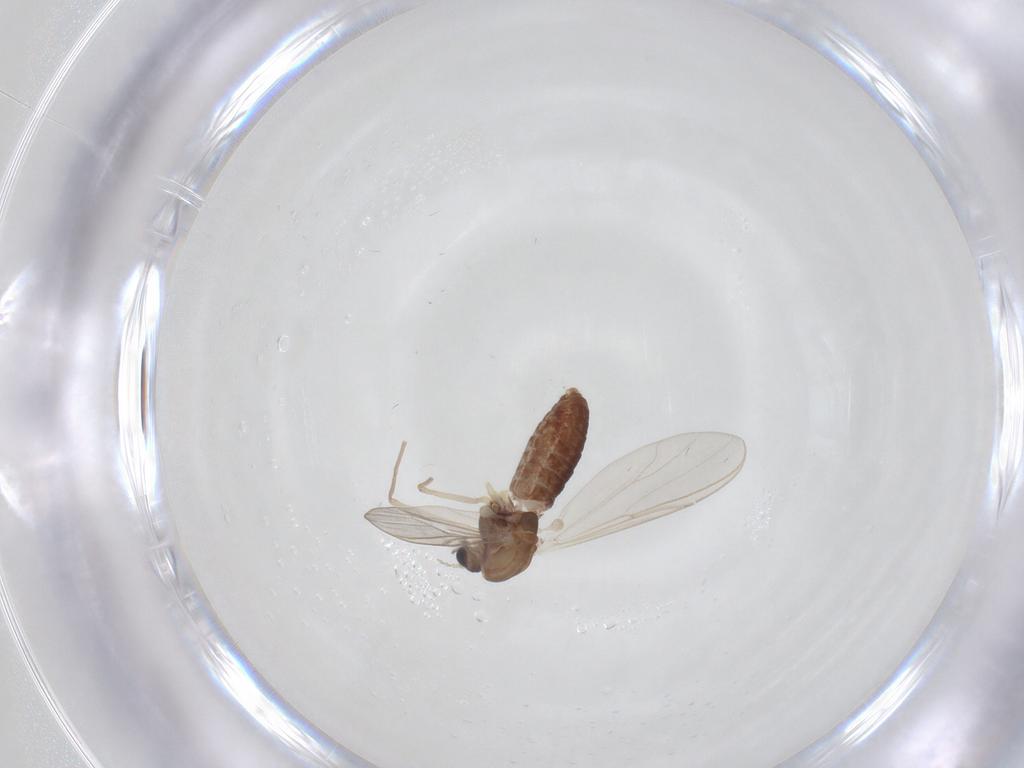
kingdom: Animalia
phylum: Arthropoda
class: Insecta
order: Diptera
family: Chironomidae
